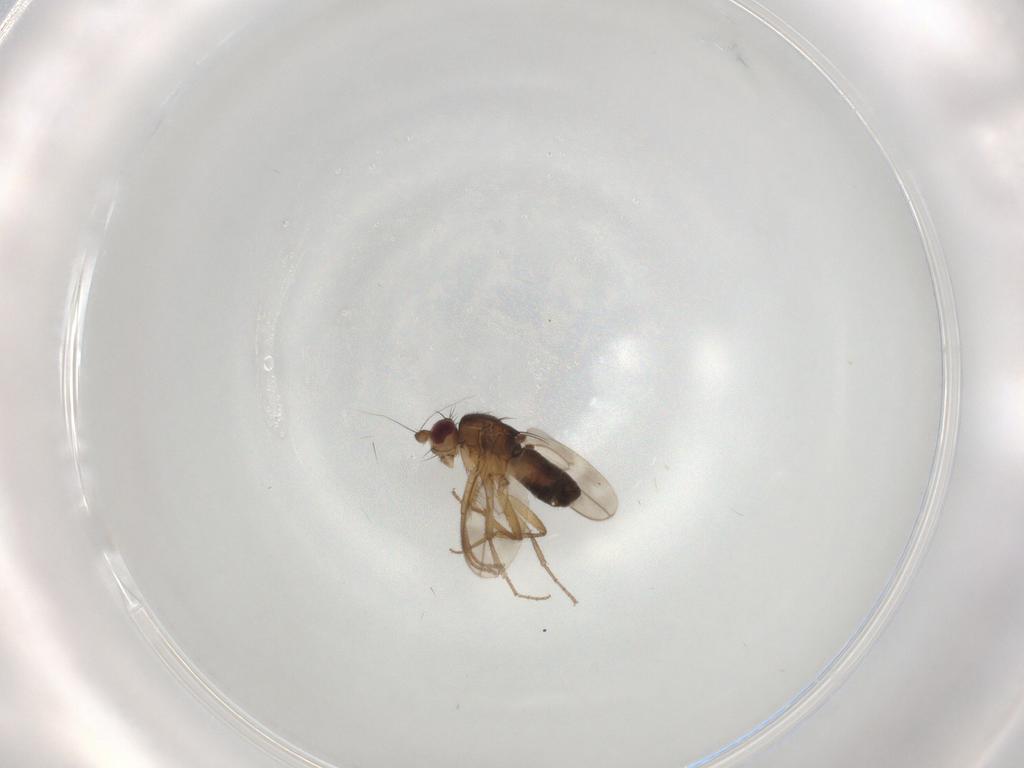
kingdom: Animalia
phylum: Arthropoda
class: Insecta
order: Diptera
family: Sphaeroceridae
